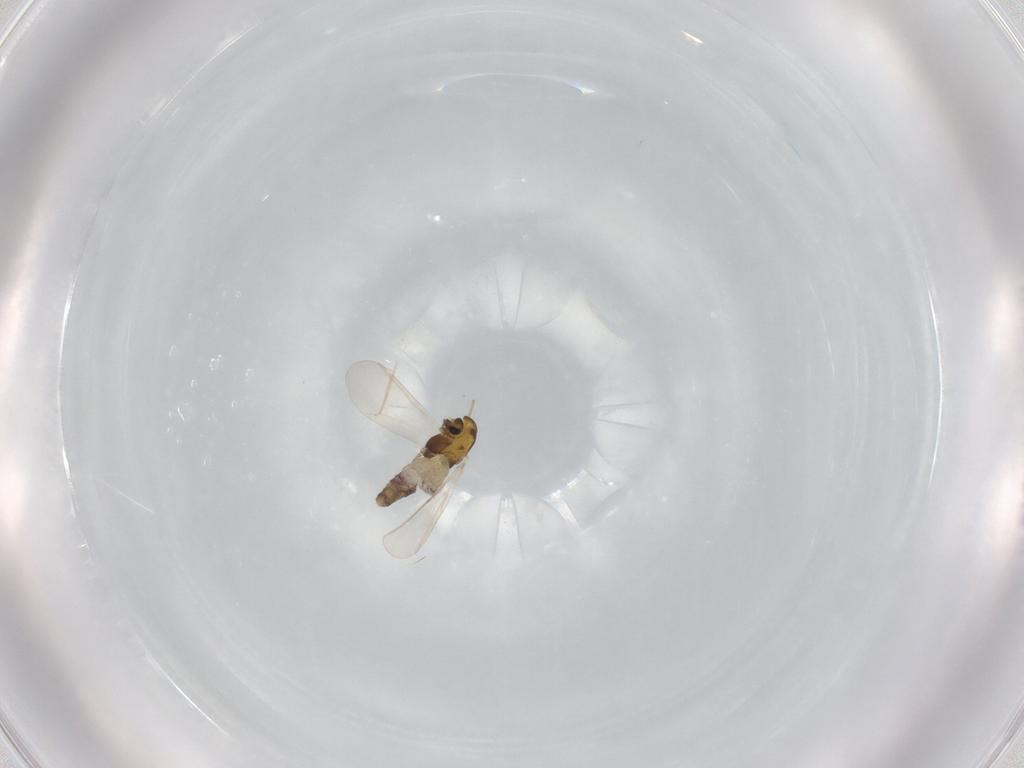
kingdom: Animalia
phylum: Arthropoda
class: Insecta
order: Diptera
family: Chironomidae
